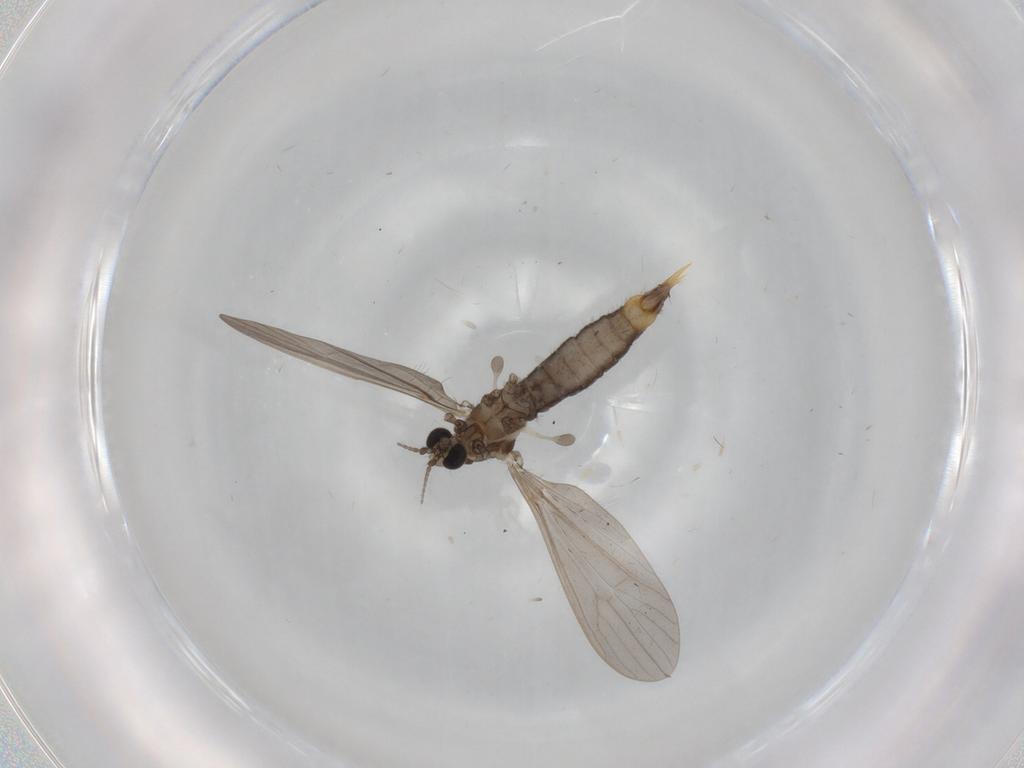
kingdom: Animalia
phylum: Arthropoda
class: Insecta
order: Diptera
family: Limoniidae
